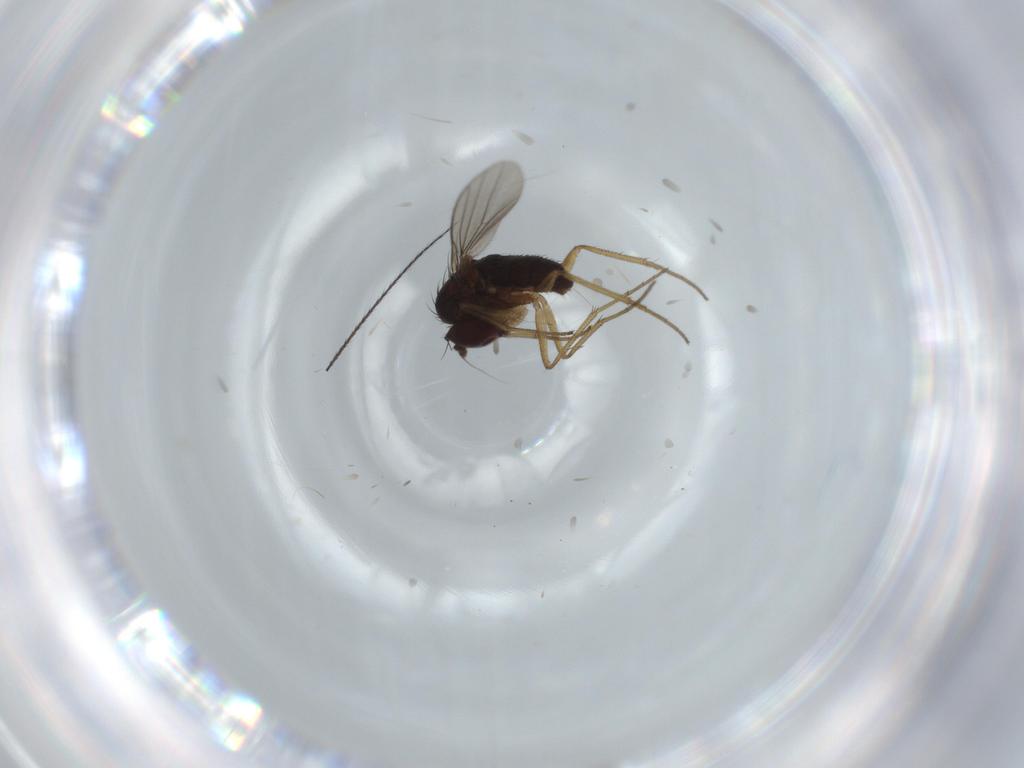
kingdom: Animalia
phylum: Arthropoda
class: Insecta
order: Diptera
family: Dolichopodidae
